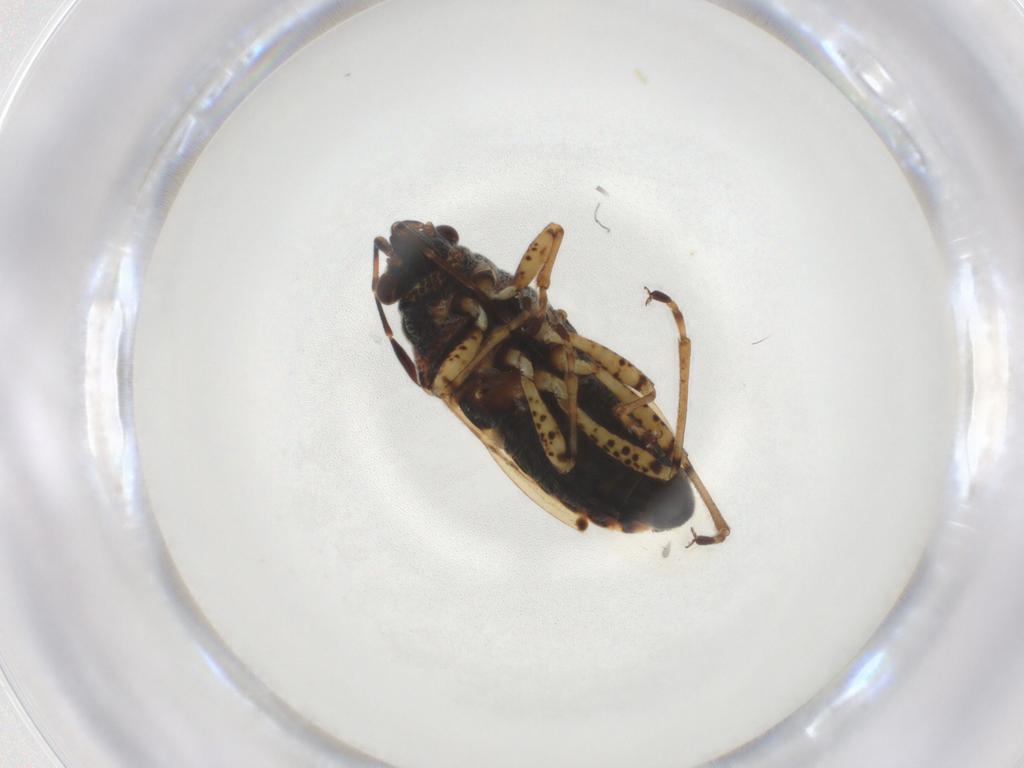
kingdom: Animalia
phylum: Arthropoda
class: Insecta
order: Hemiptera
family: Lygaeidae
